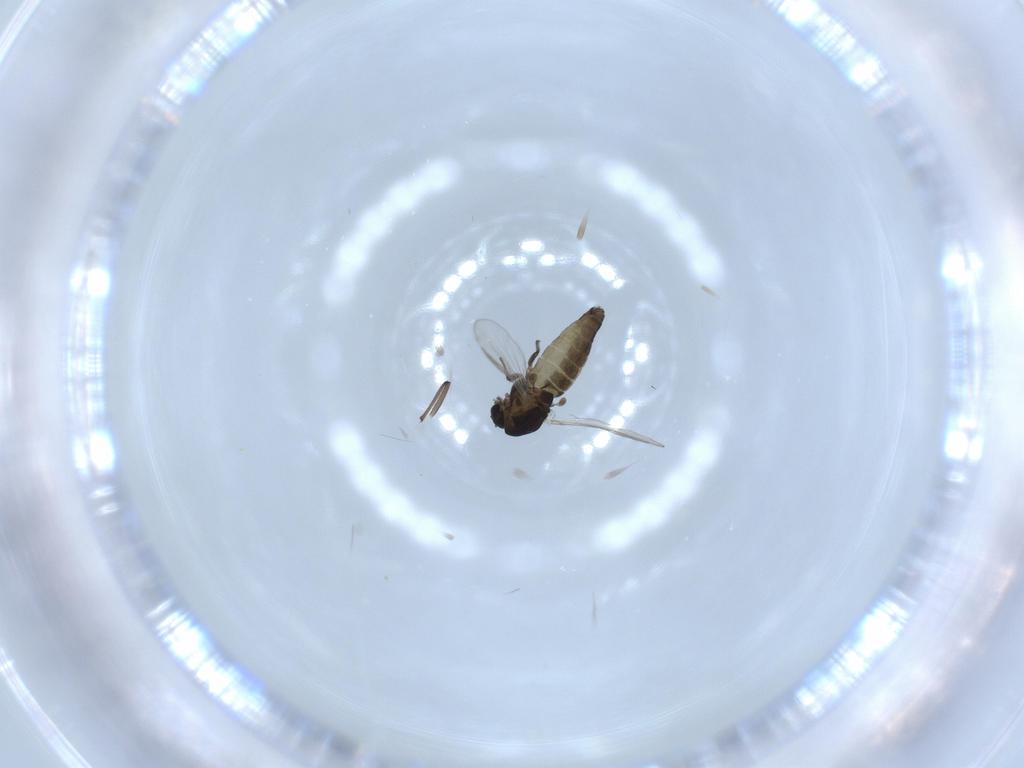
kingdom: Animalia
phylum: Arthropoda
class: Insecta
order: Diptera
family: Chironomidae
